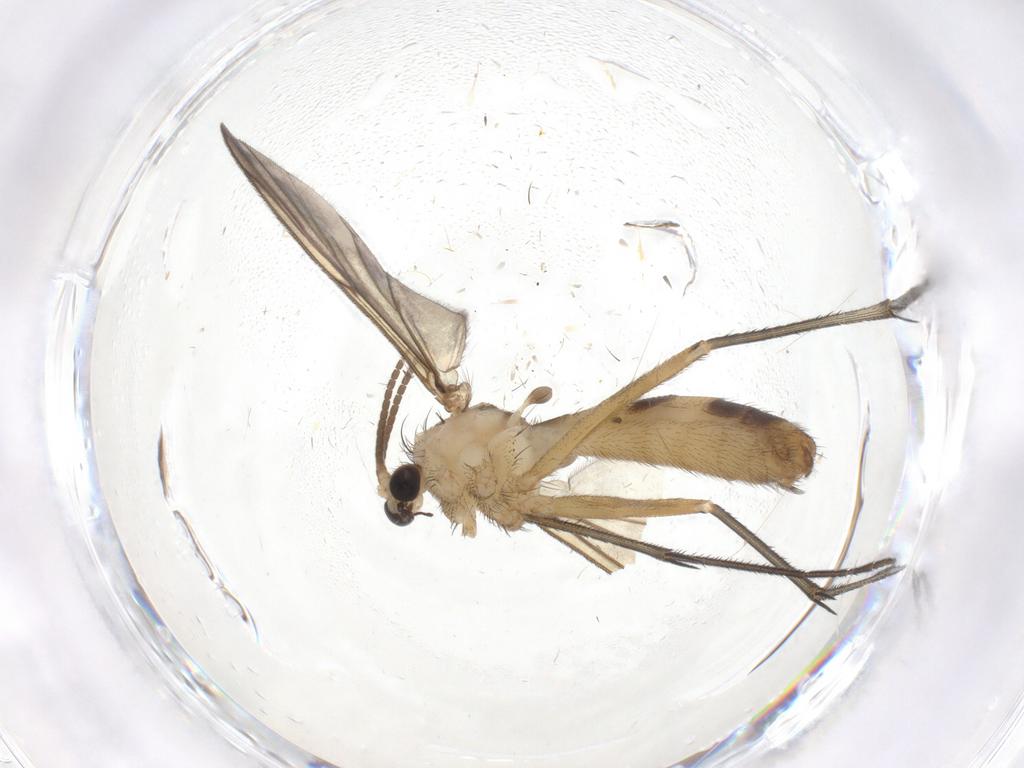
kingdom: Animalia
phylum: Arthropoda
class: Insecta
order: Diptera
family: Mycetophilidae
